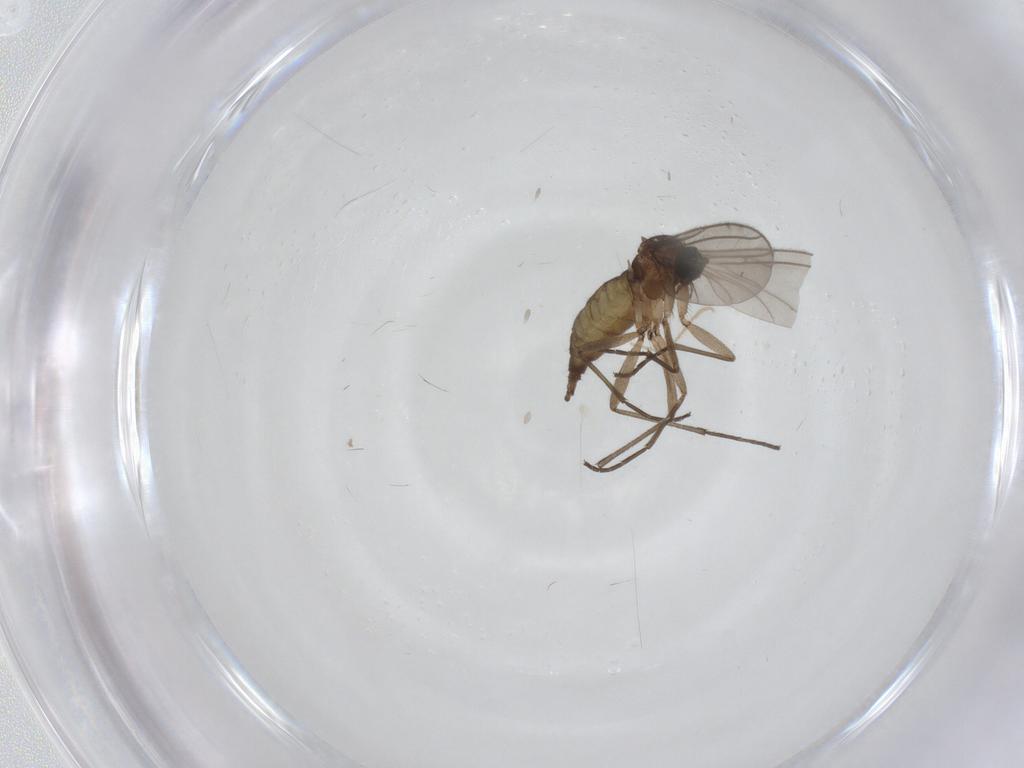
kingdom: Animalia
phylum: Arthropoda
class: Insecta
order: Diptera
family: Sciaridae
